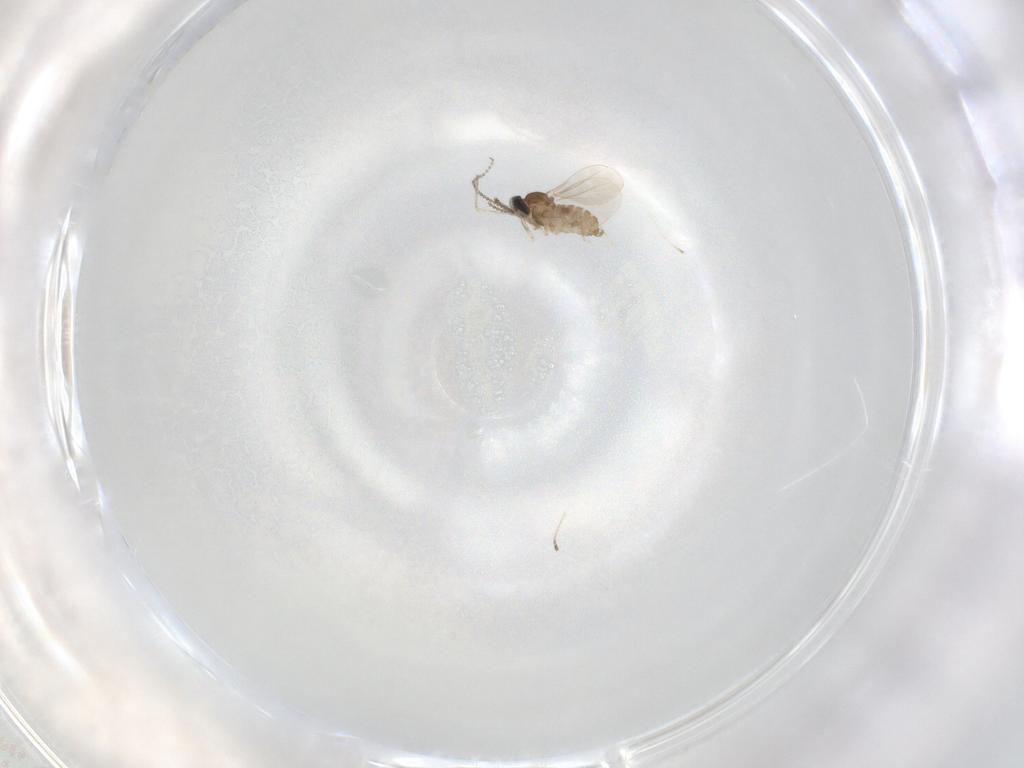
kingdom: Animalia
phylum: Arthropoda
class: Insecta
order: Diptera
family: Cecidomyiidae
